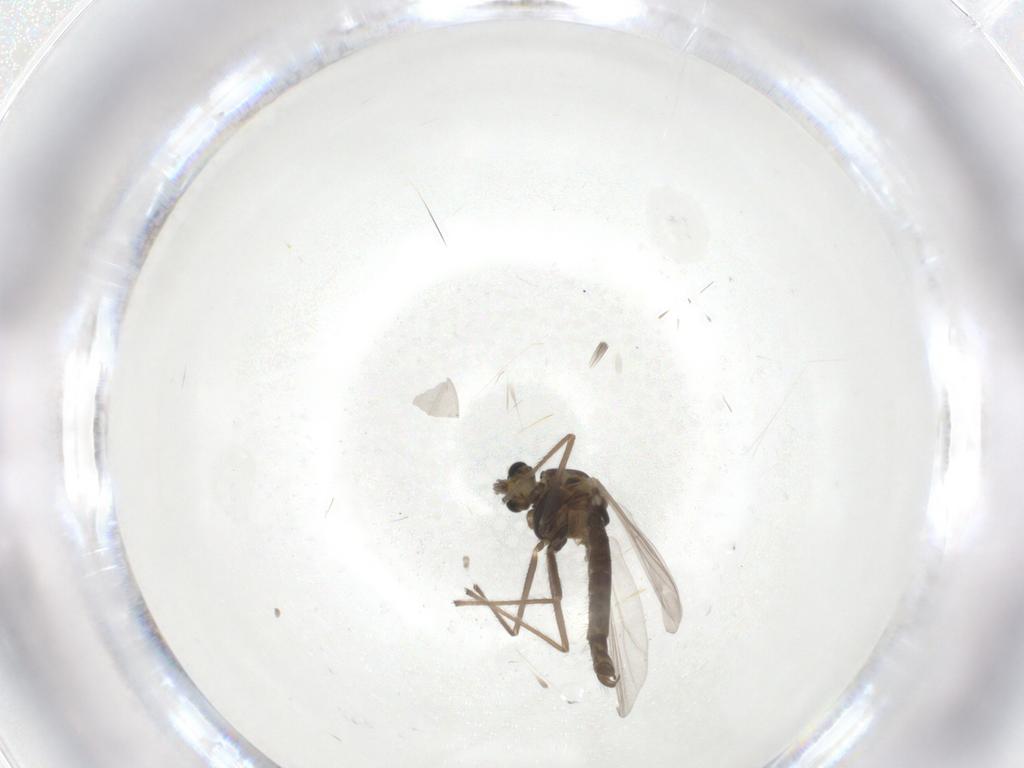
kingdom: Animalia
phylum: Arthropoda
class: Insecta
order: Diptera
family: Chironomidae
